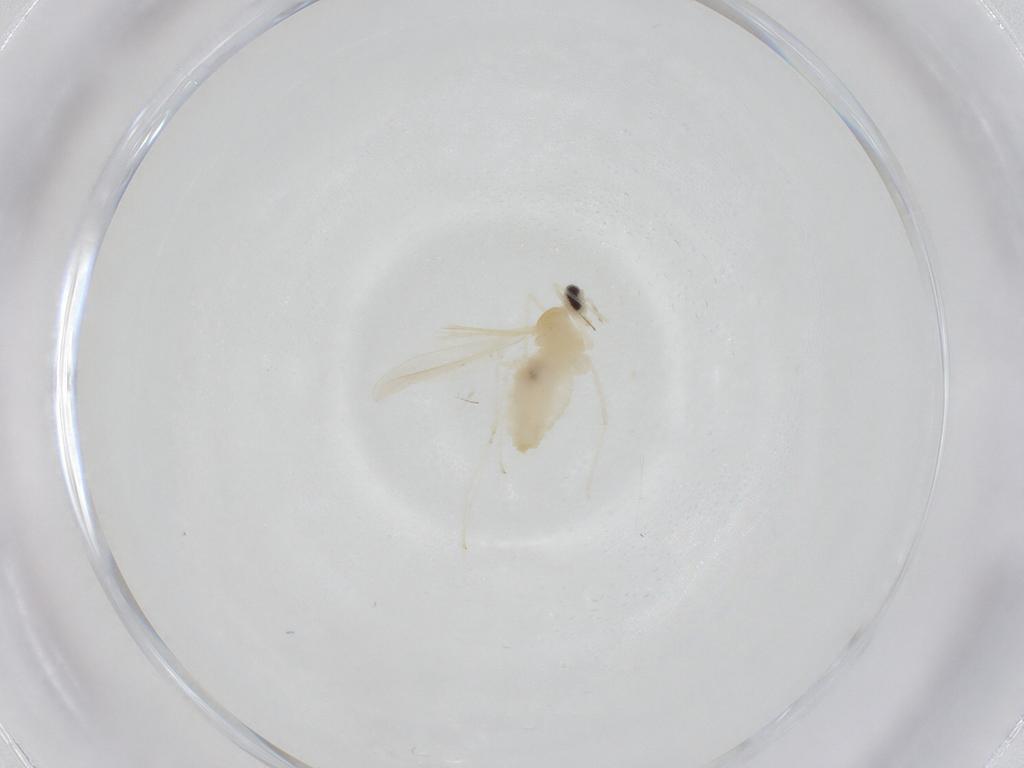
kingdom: Animalia
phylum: Arthropoda
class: Insecta
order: Diptera
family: Cecidomyiidae
